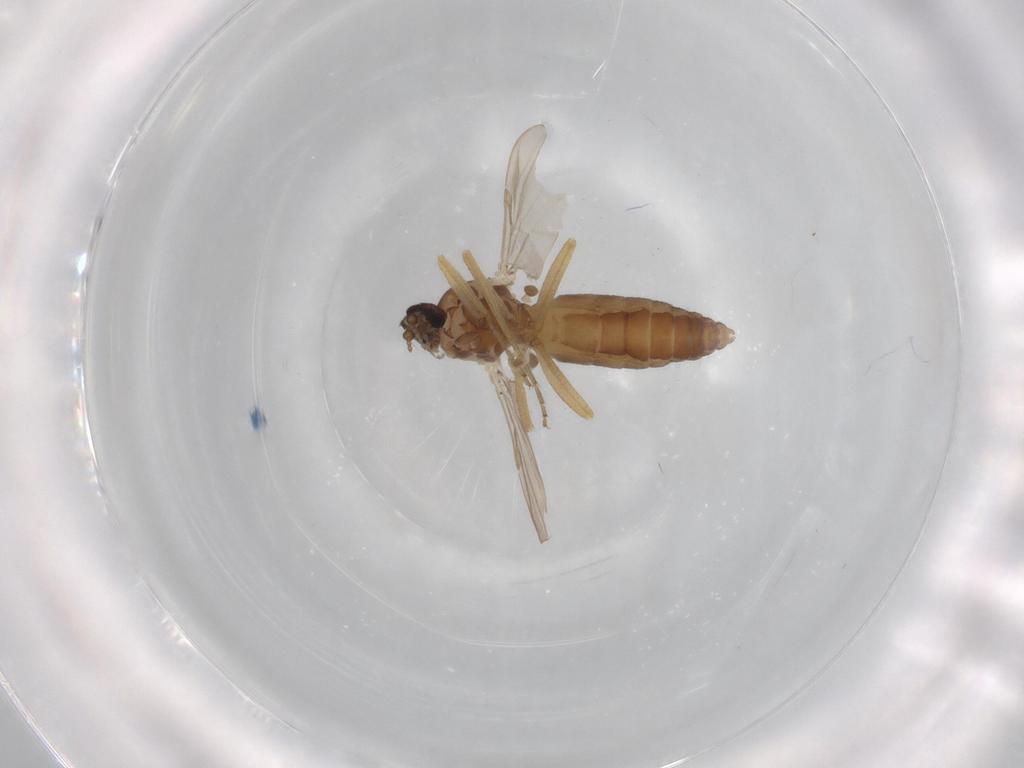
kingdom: Animalia
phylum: Arthropoda
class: Insecta
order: Diptera
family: Ceratopogonidae
